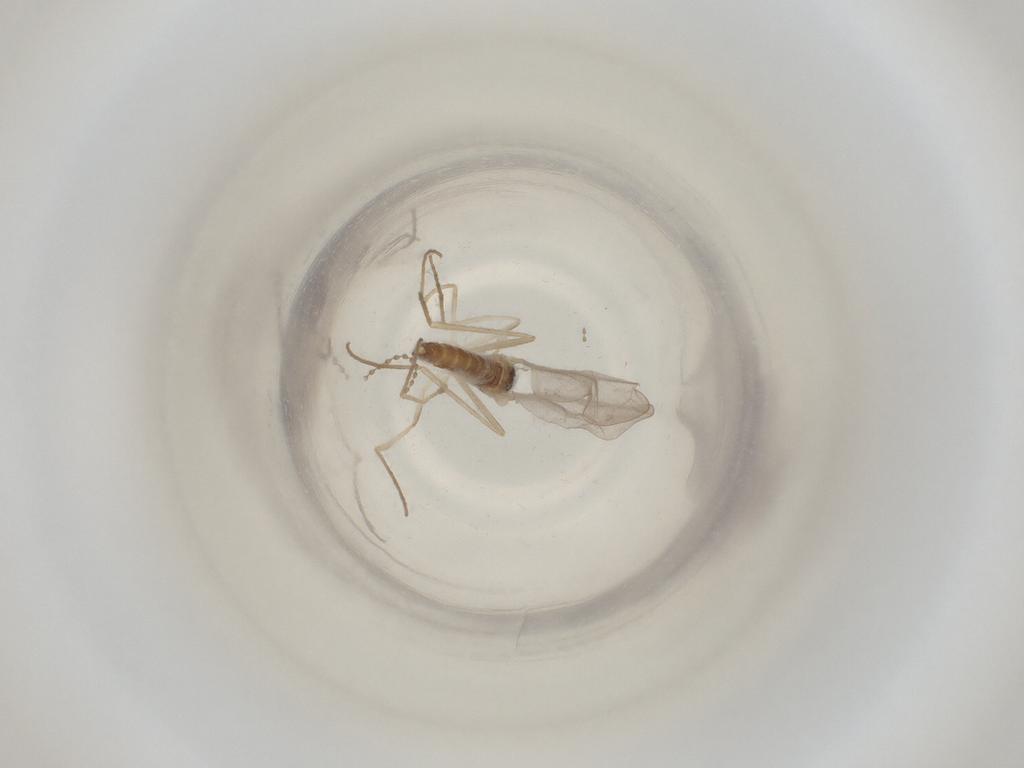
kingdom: Animalia
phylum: Arthropoda
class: Insecta
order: Diptera
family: Cecidomyiidae
